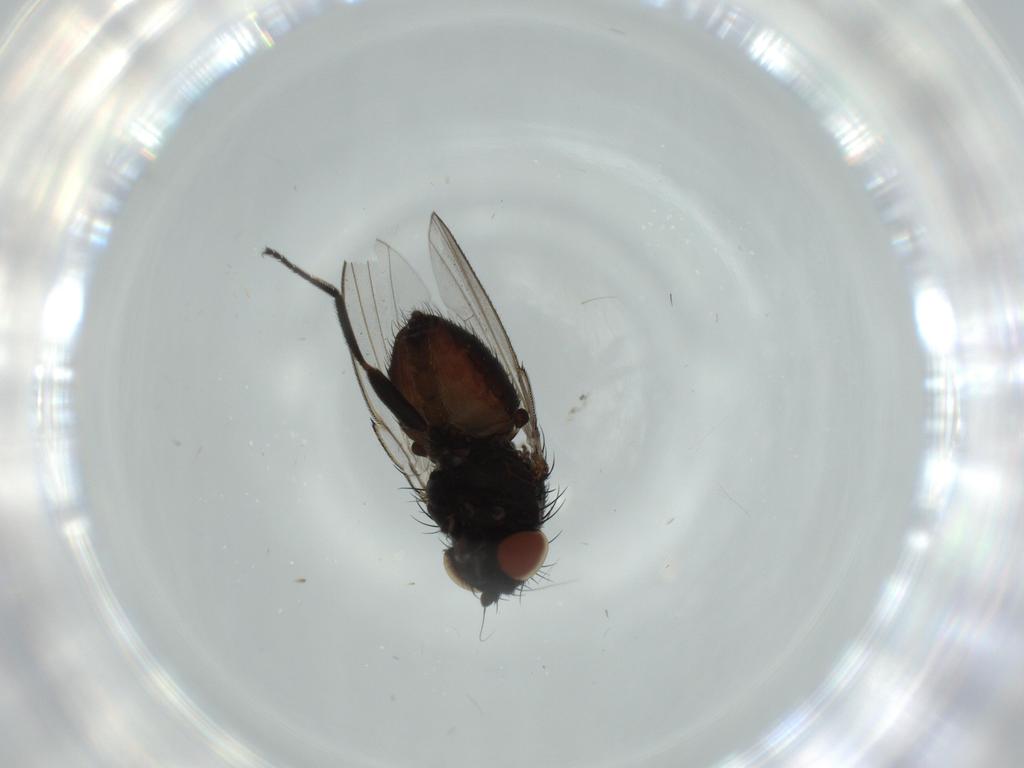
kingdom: Animalia
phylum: Arthropoda
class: Insecta
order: Diptera
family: Milichiidae
